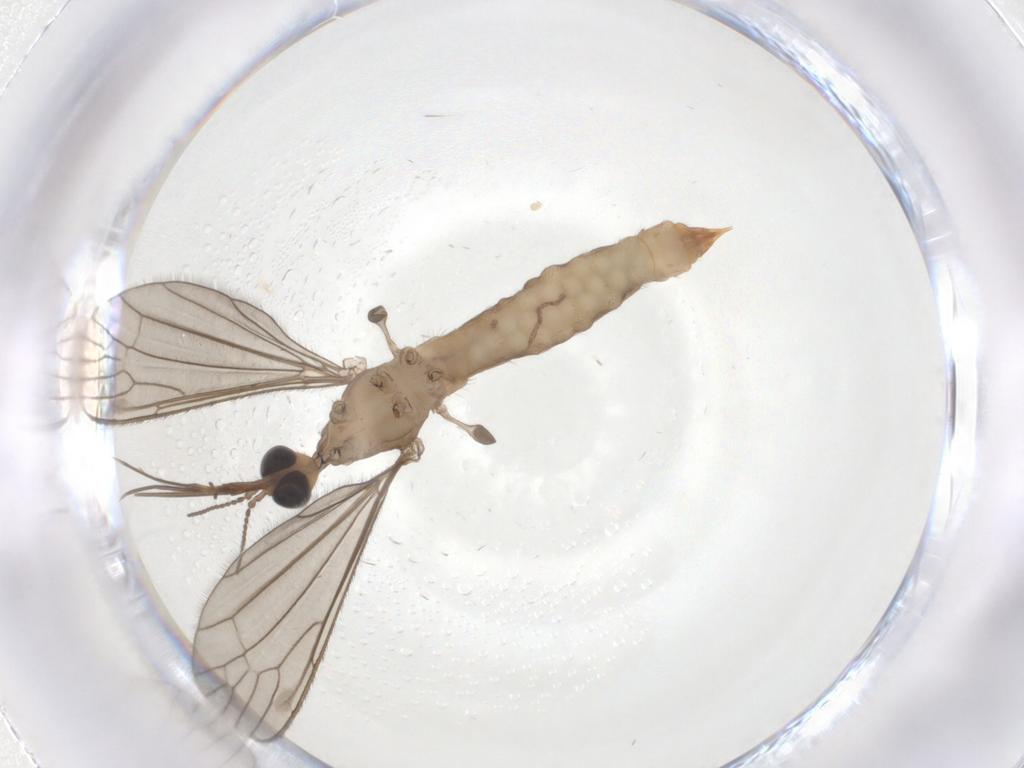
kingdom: Animalia
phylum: Arthropoda
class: Insecta
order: Diptera
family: Limoniidae
